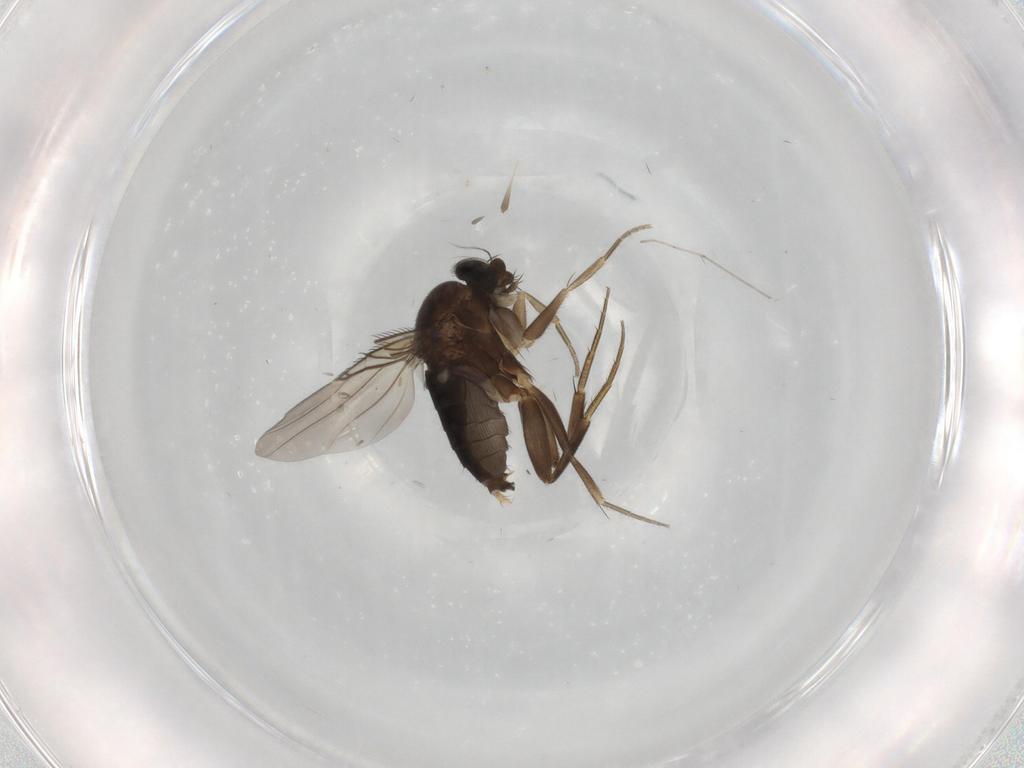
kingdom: Animalia
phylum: Arthropoda
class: Insecta
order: Diptera
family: Phoridae
